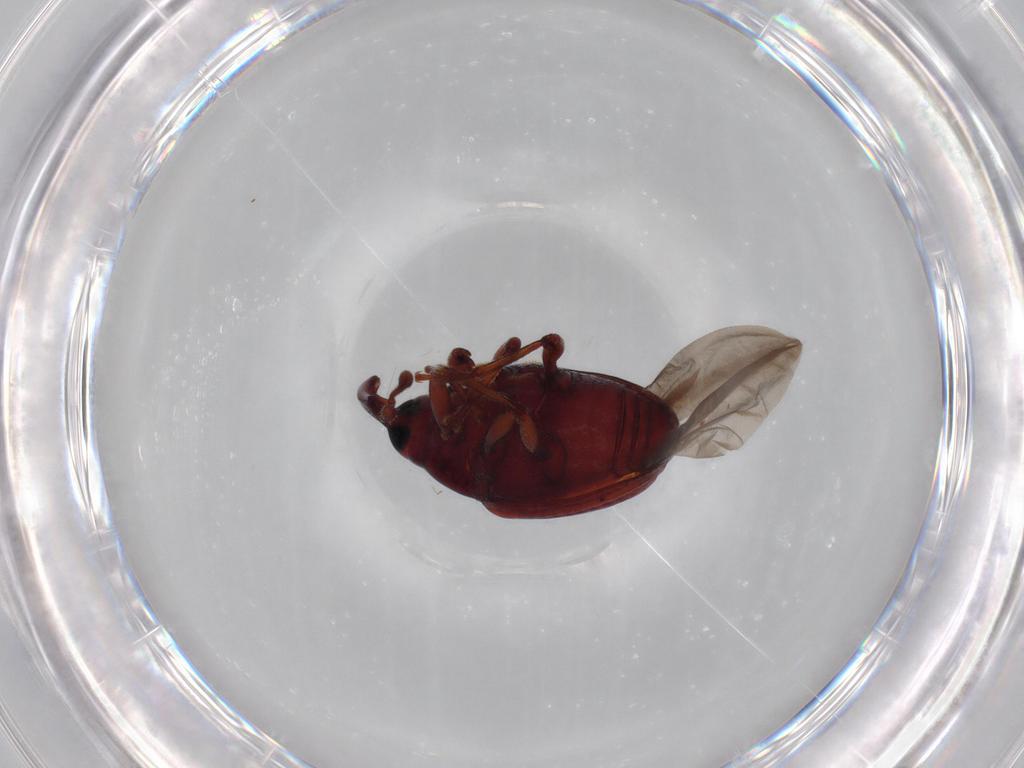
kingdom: Animalia
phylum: Arthropoda
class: Insecta
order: Coleoptera
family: Curculionidae
